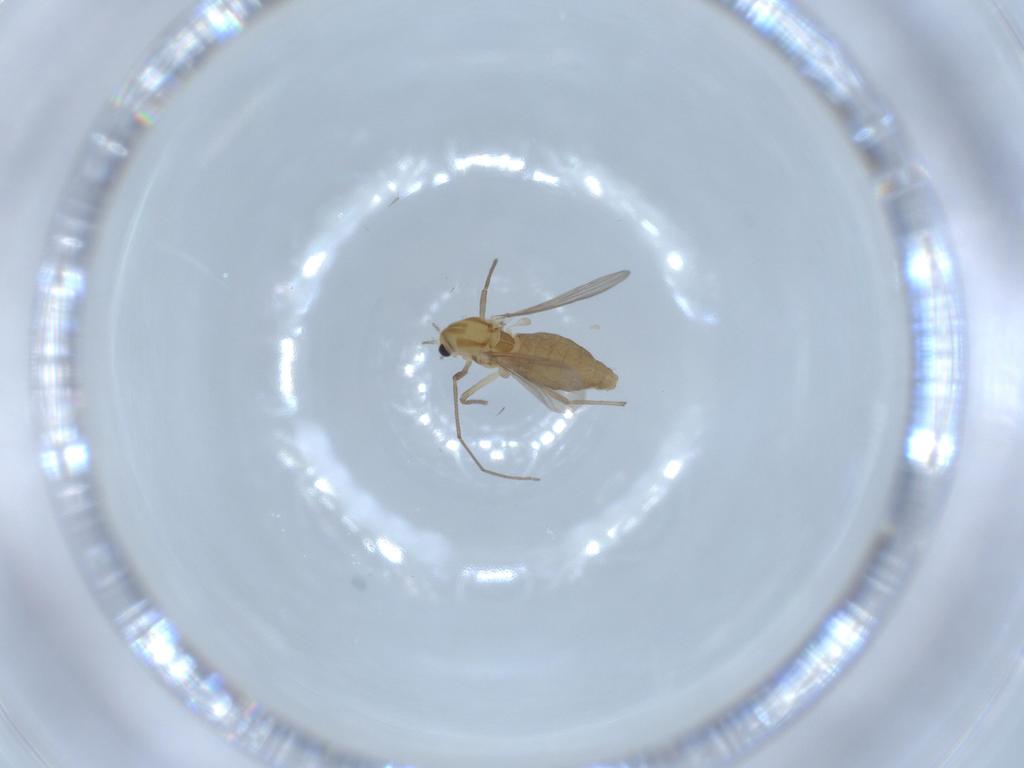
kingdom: Animalia
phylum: Arthropoda
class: Insecta
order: Diptera
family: Chironomidae
